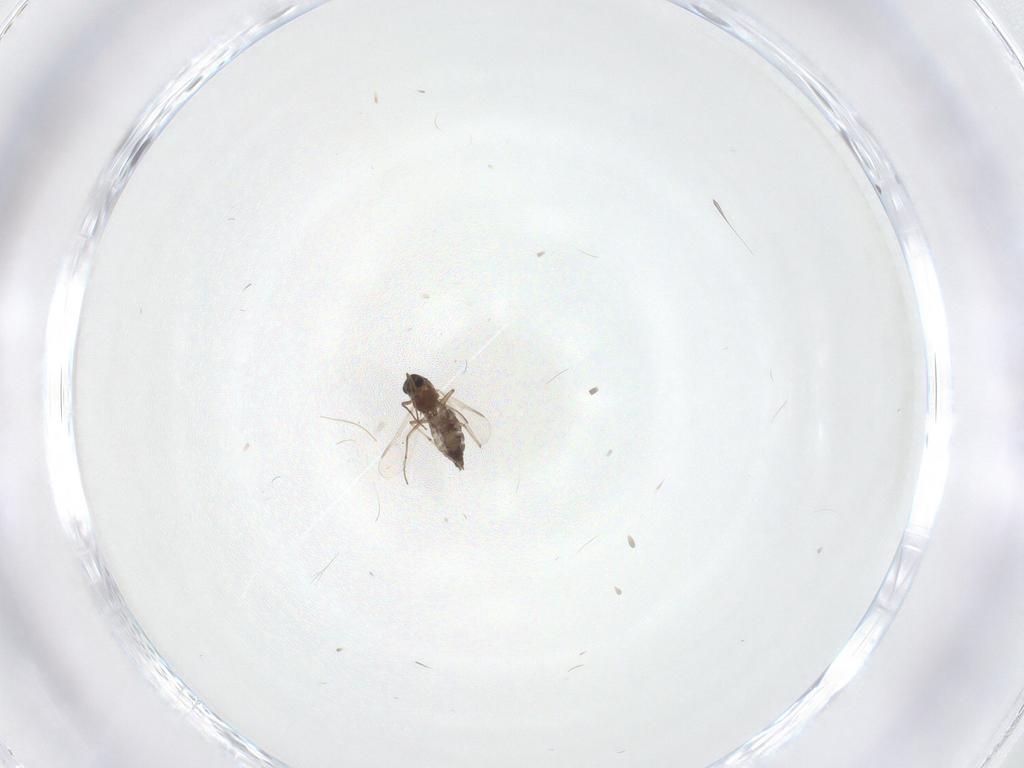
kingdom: Animalia
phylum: Arthropoda
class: Insecta
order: Diptera
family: Chironomidae
